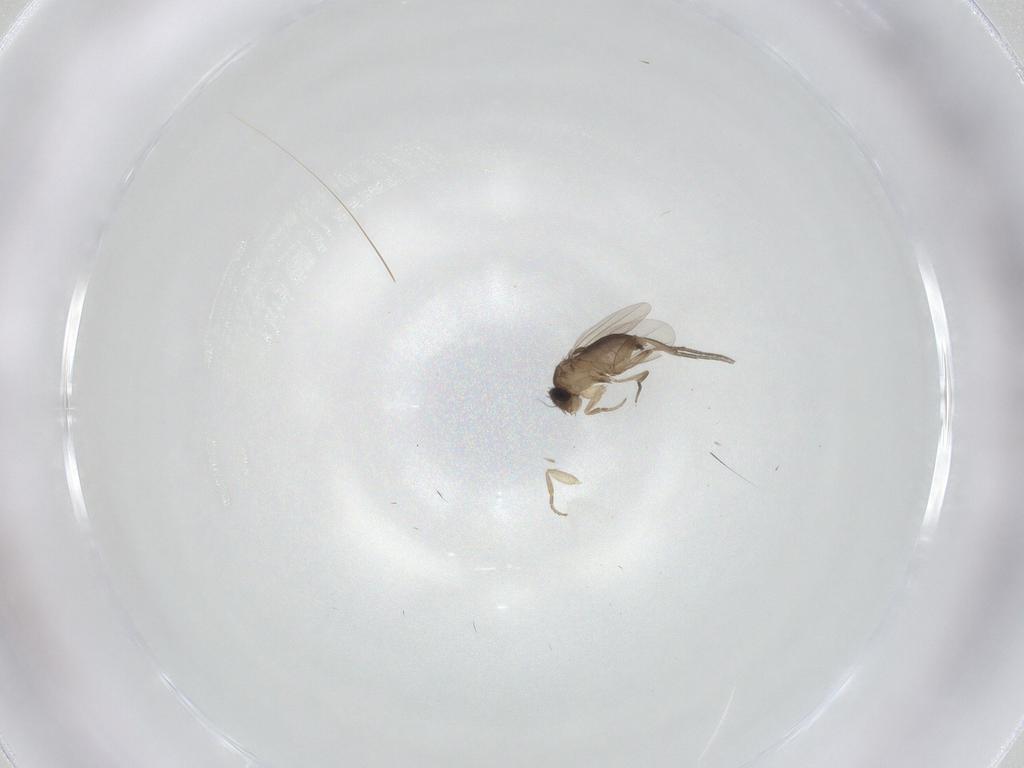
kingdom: Animalia
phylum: Arthropoda
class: Insecta
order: Diptera
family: Phoridae
